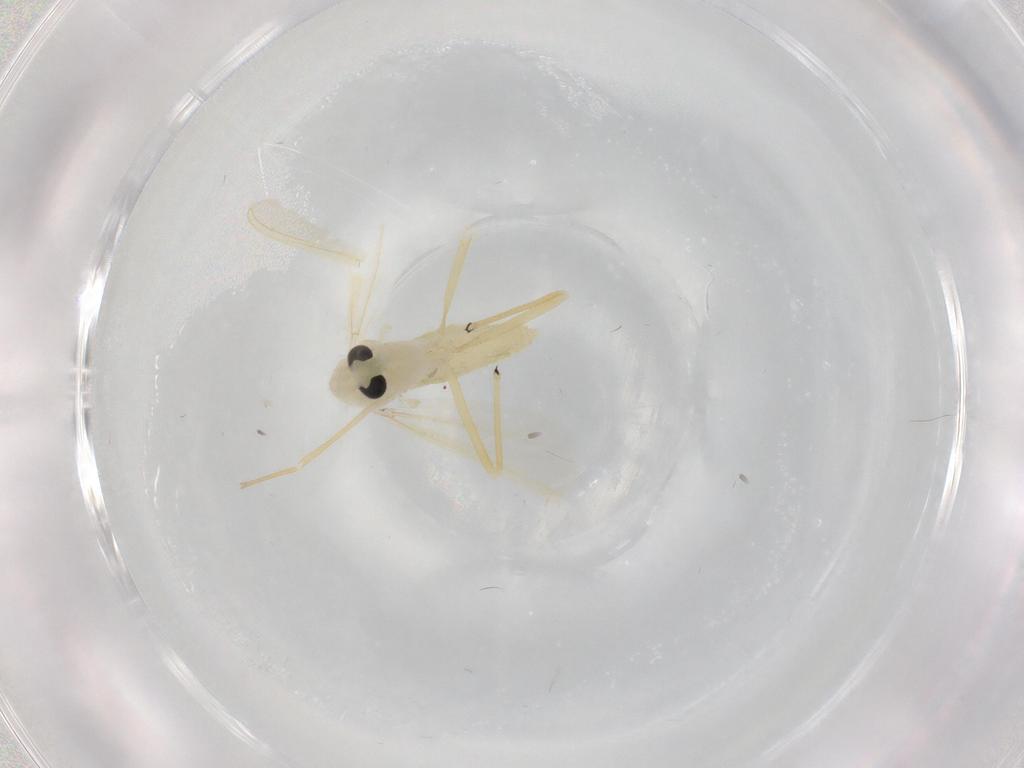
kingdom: Animalia
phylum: Arthropoda
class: Insecta
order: Diptera
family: Chironomidae
